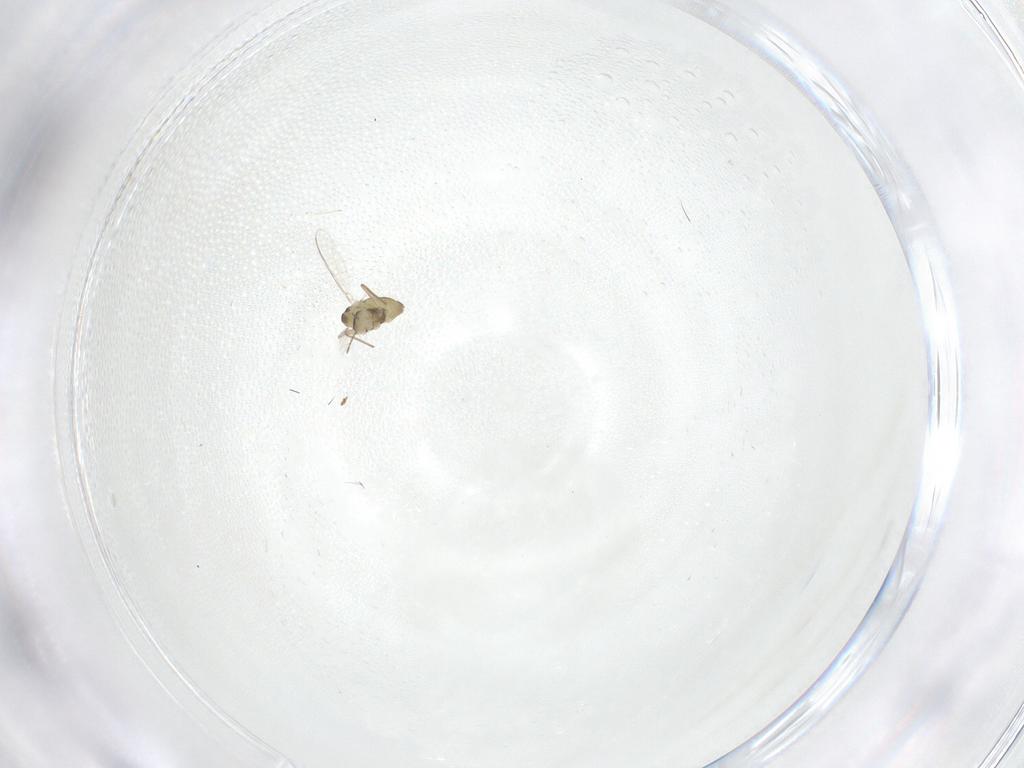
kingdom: Animalia
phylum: Arthropoda
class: Insecta
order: Diptera
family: Chironomidae
